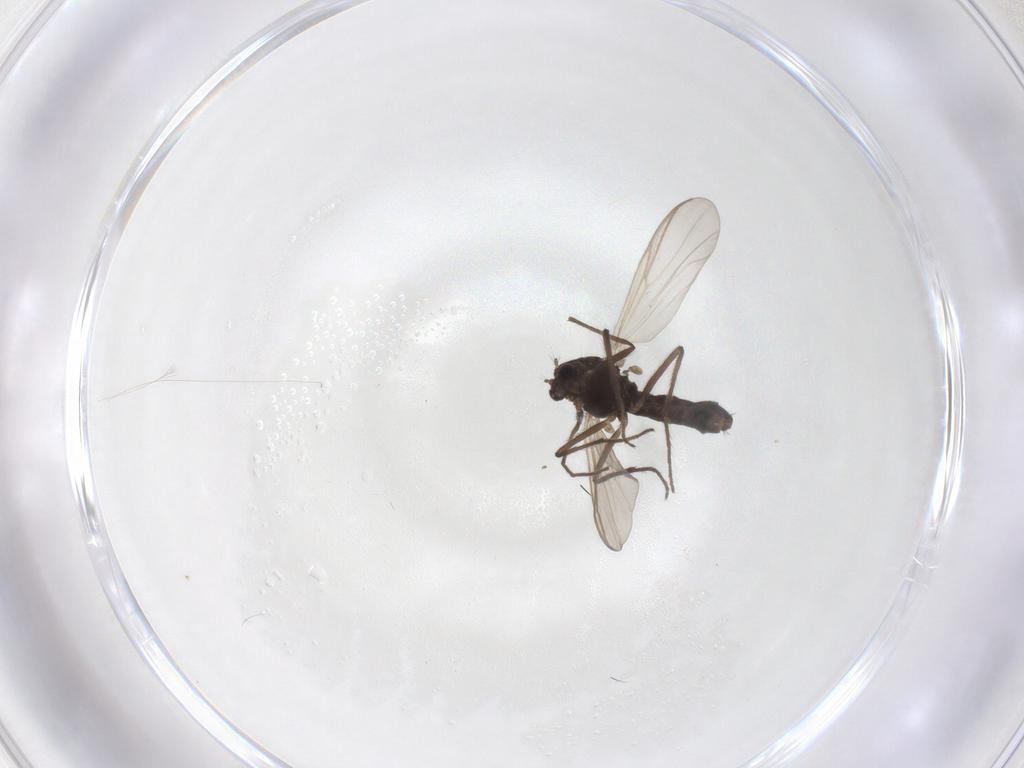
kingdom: Animalia
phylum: Arthropoda
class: Insecta
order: Diptera
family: Chironomidae
